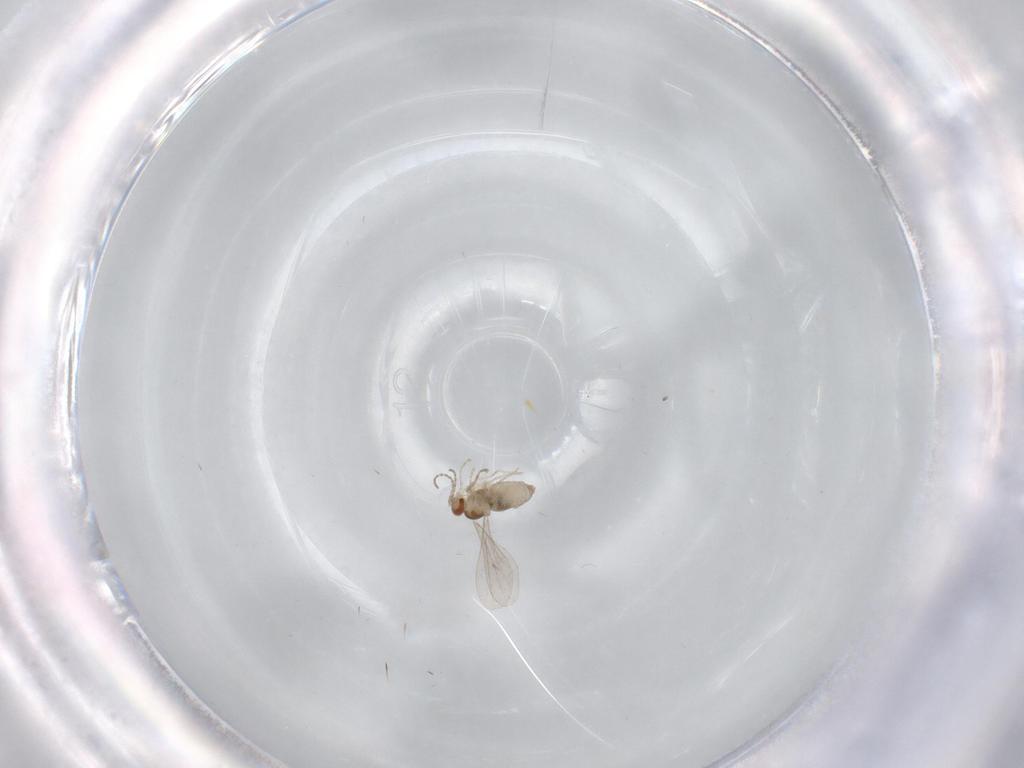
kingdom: Animalia
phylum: Arthropoda
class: Insecta
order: Diptera
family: Cecidomyiidae
